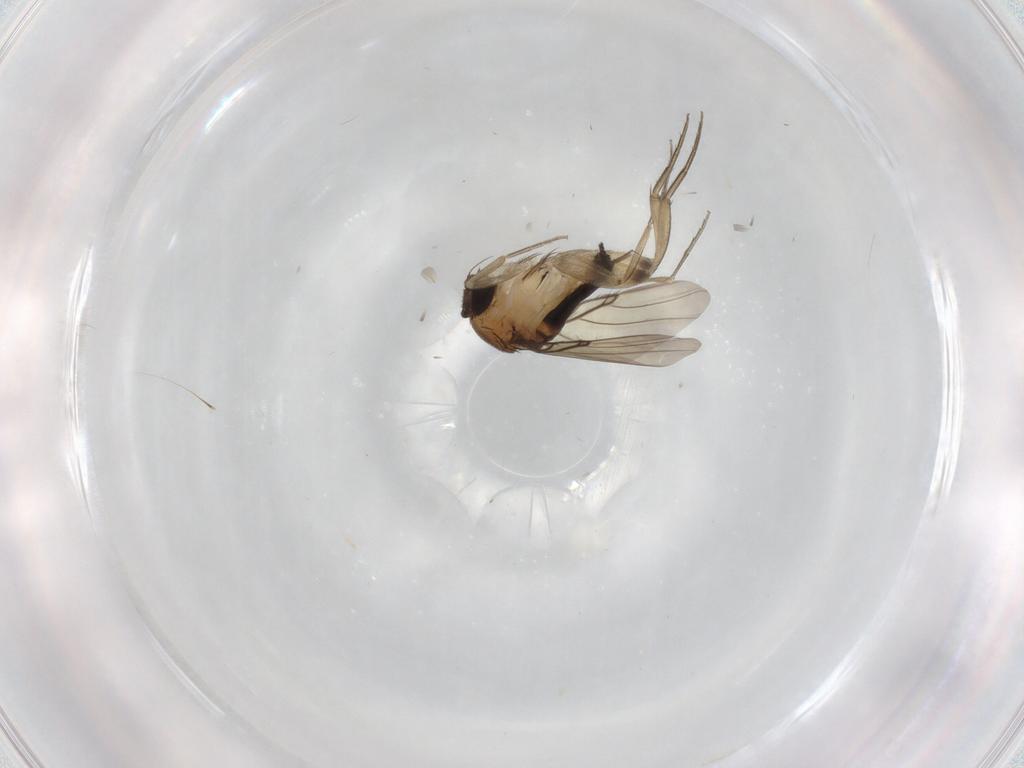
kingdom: Animalia
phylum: Arthropoda
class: Insecta
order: Diptera
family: Phoridae
